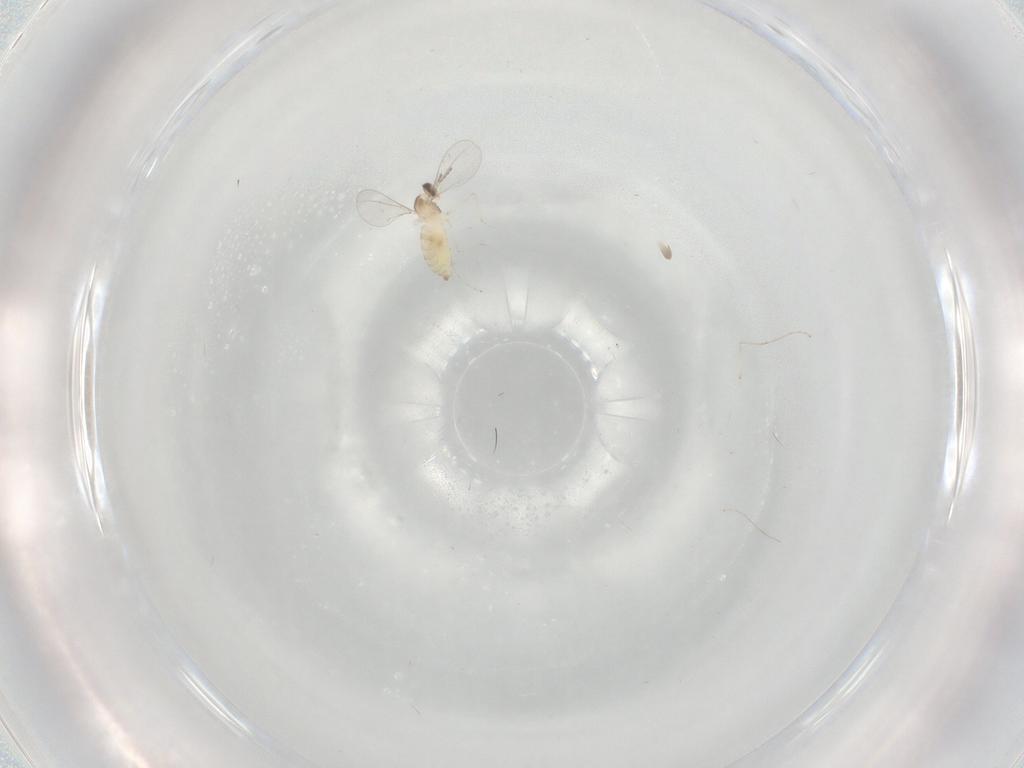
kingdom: Animalia
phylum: Arthropoda
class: Insecta
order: Diptera
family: Cecidomyiidae
